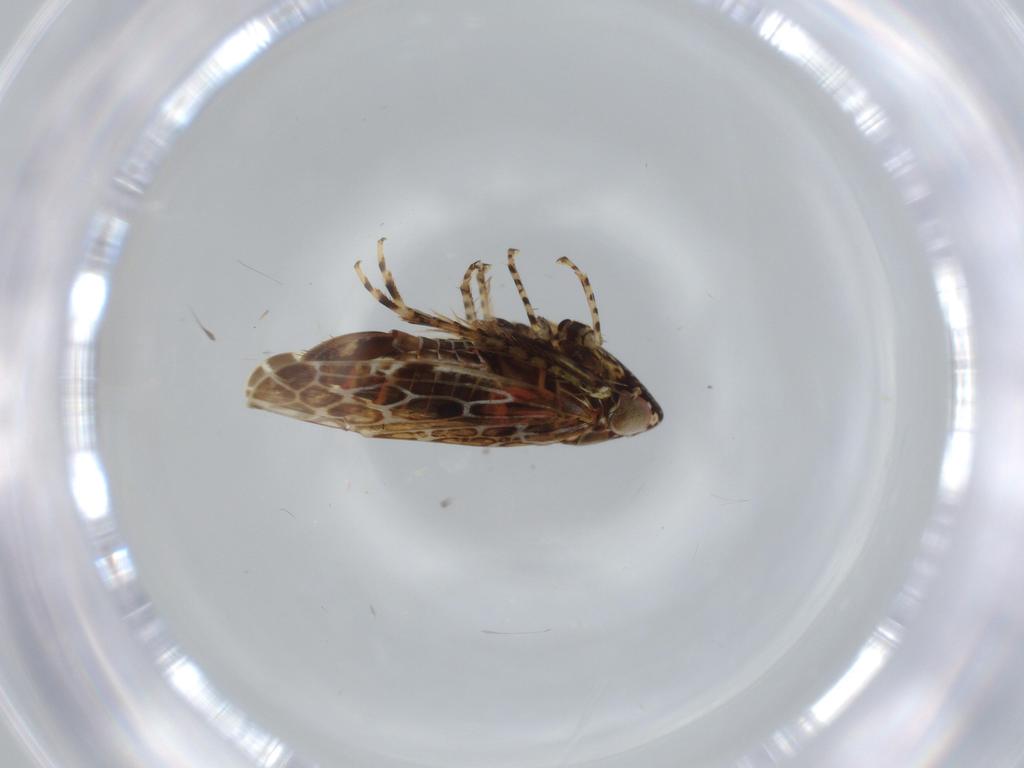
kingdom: Animalia
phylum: Arthropoda
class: Insecta
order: Hemiptera
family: Cicadellidae
